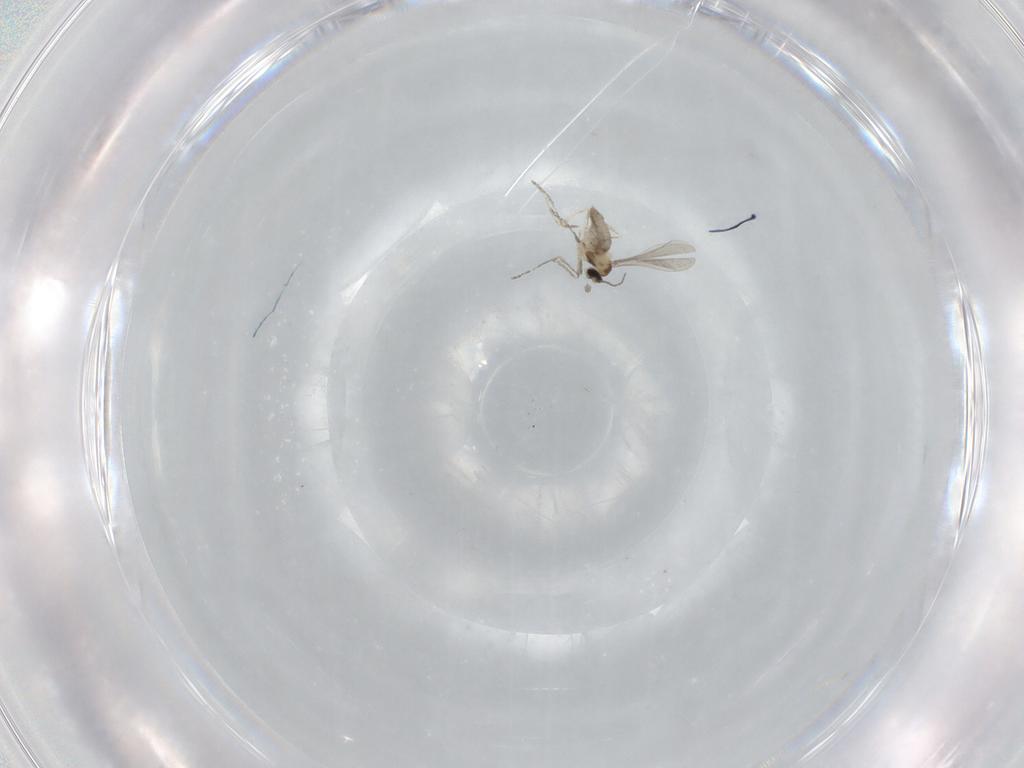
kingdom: Animalia
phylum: Arthropoda
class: Insecta
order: Diptera
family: Cecidomyiidae
